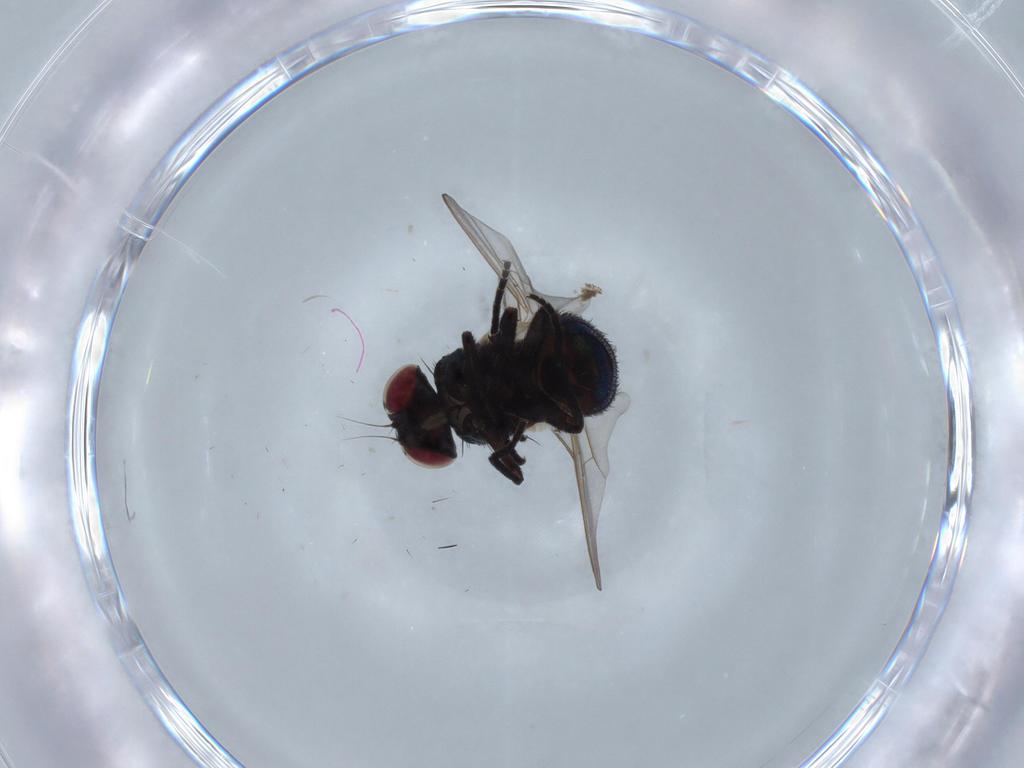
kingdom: Animalia
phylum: Arthropoda
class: Insecta
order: Diptera
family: Agromyzidae
